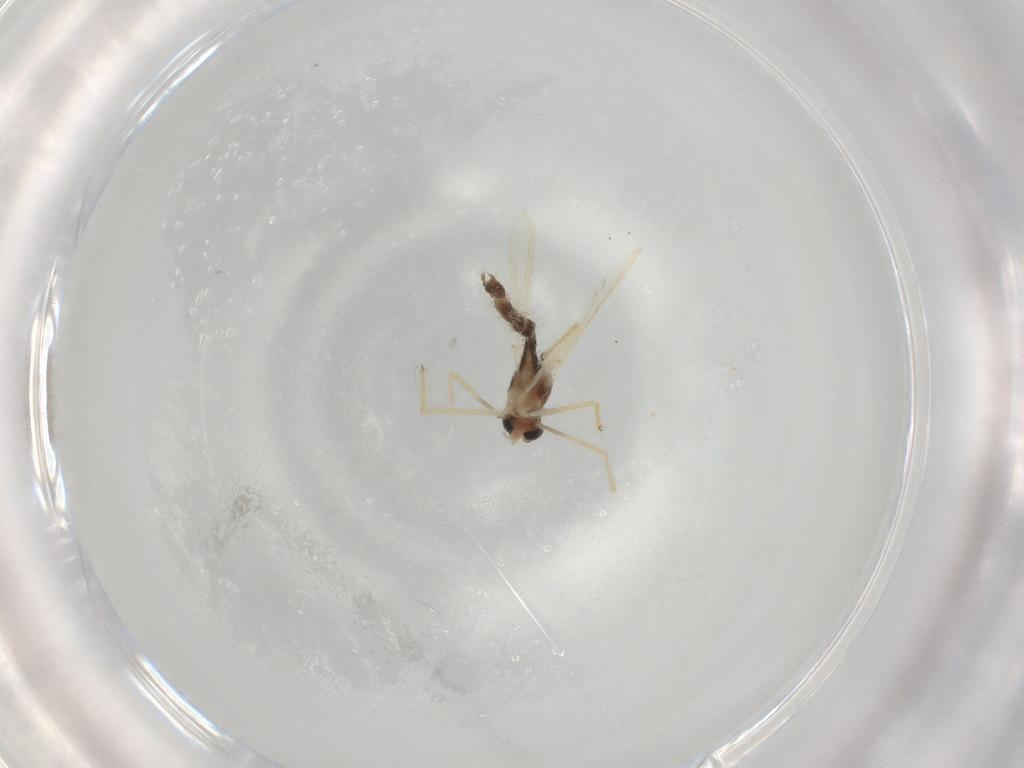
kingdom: Animalia
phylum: Arthropoda
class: Insecta
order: Diptera
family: Chironomidae
